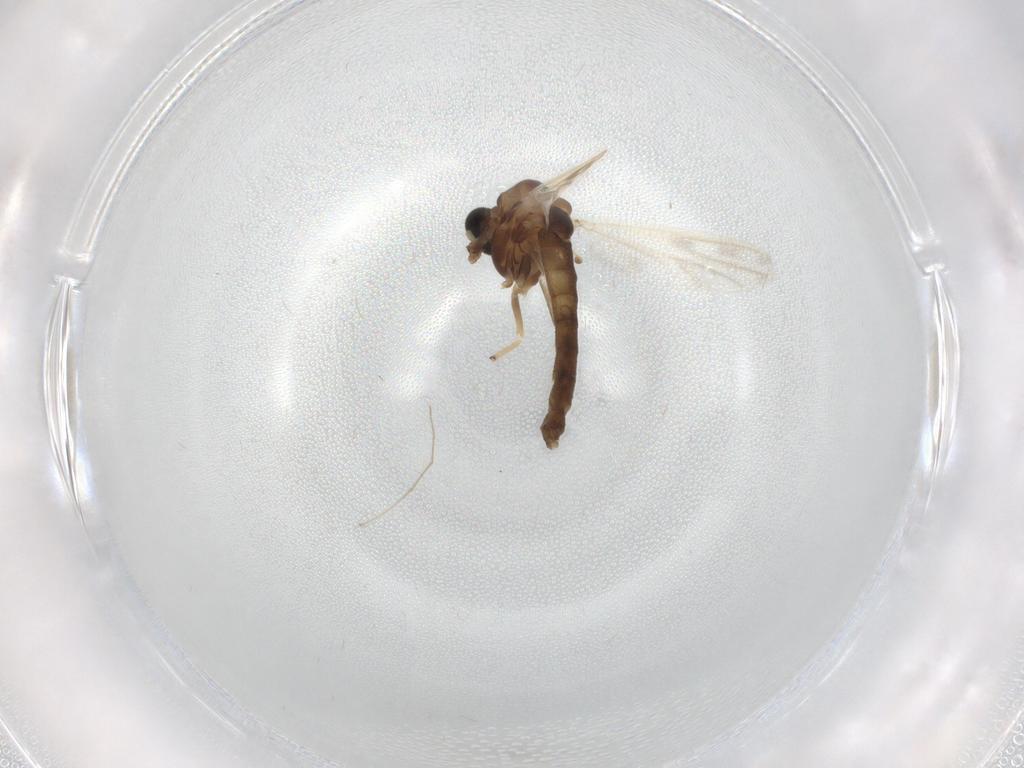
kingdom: Animalia
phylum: Arthropoda
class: Insecta
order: Diptera
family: Chironomidae
